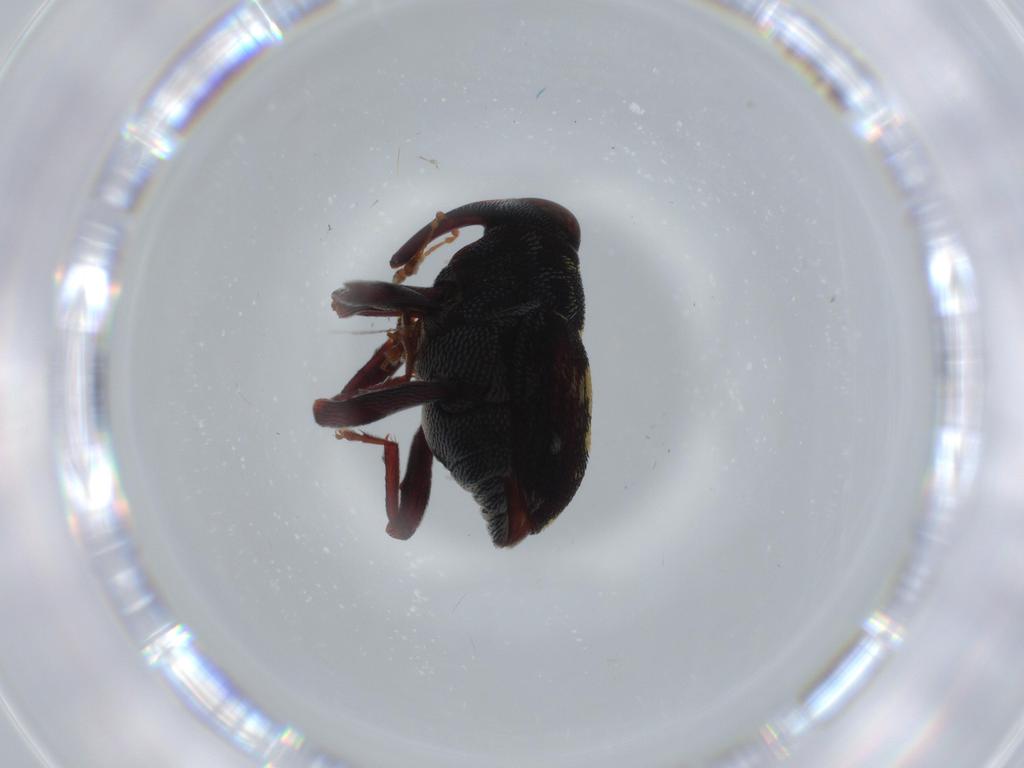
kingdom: Animalia
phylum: Arthropoda
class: Insecta
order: Coleoptera
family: Bostrichidae
